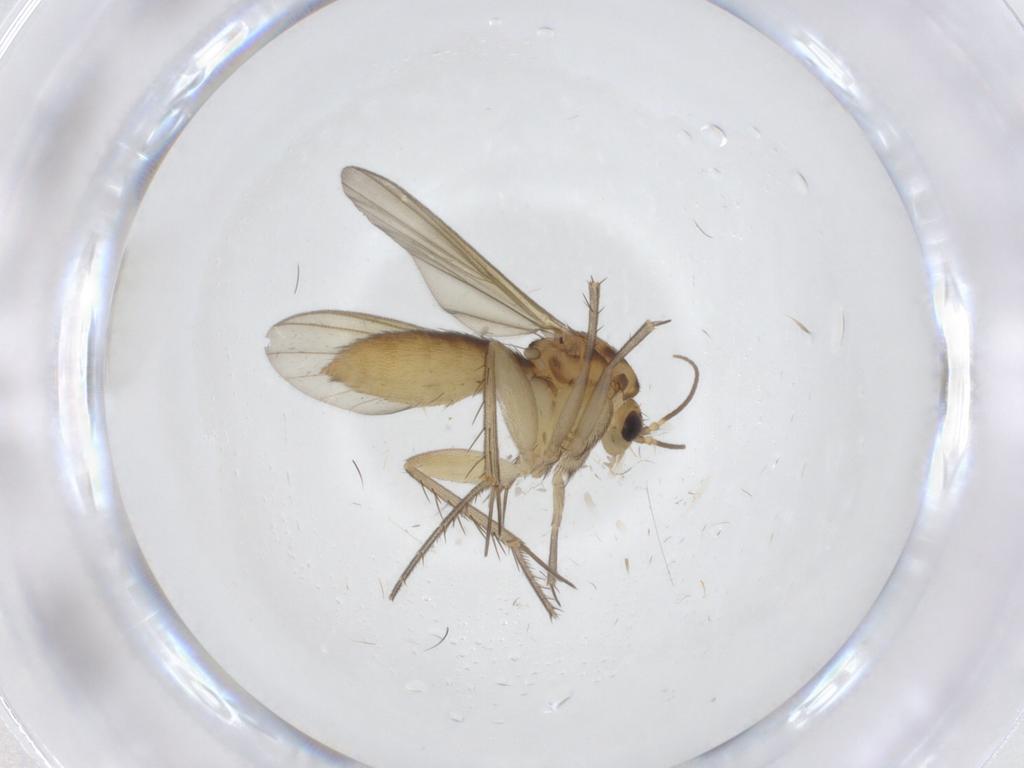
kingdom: Animalia
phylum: Arthropoda
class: Insecta
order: Diptera
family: Mycetophilidae
